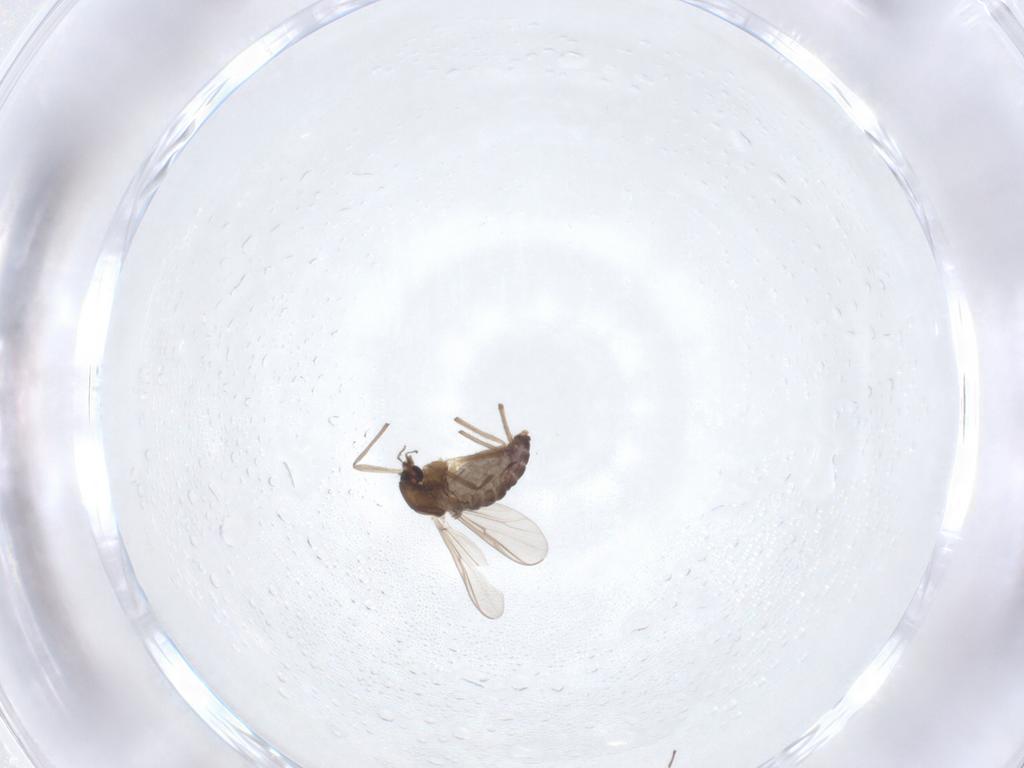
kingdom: Animalia
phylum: Arthropoda
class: Insecta
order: Diptera
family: Chironomidae
